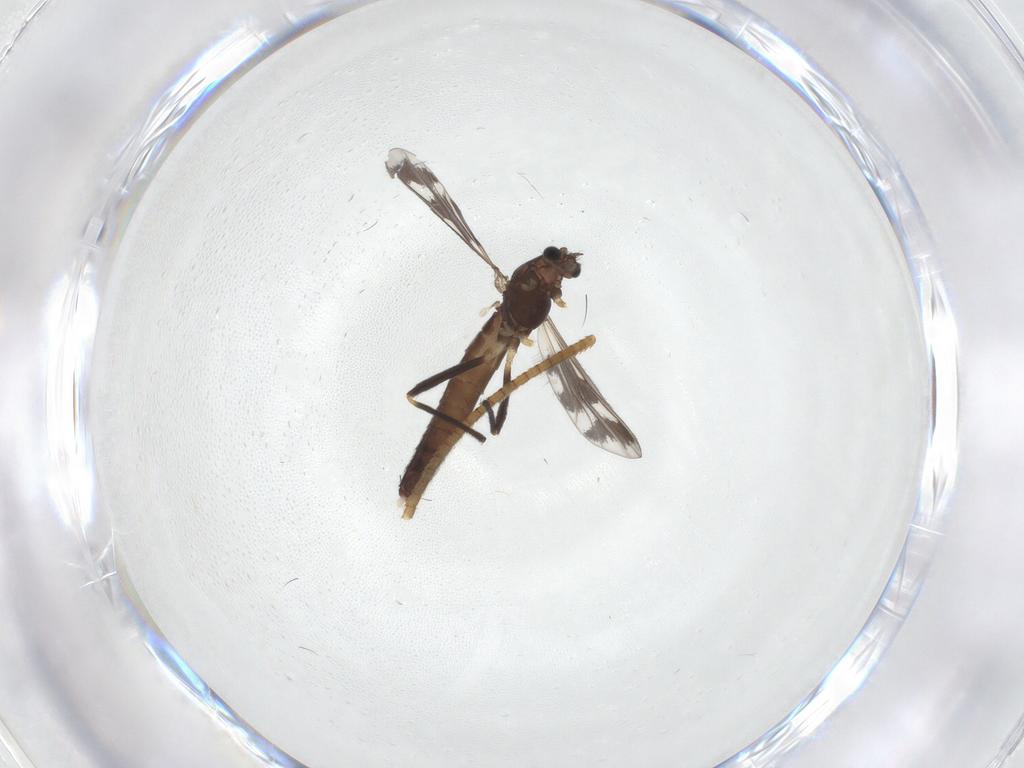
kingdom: Animalia
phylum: Arthropoda
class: Insecta
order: Diptera
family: Chironomidae
